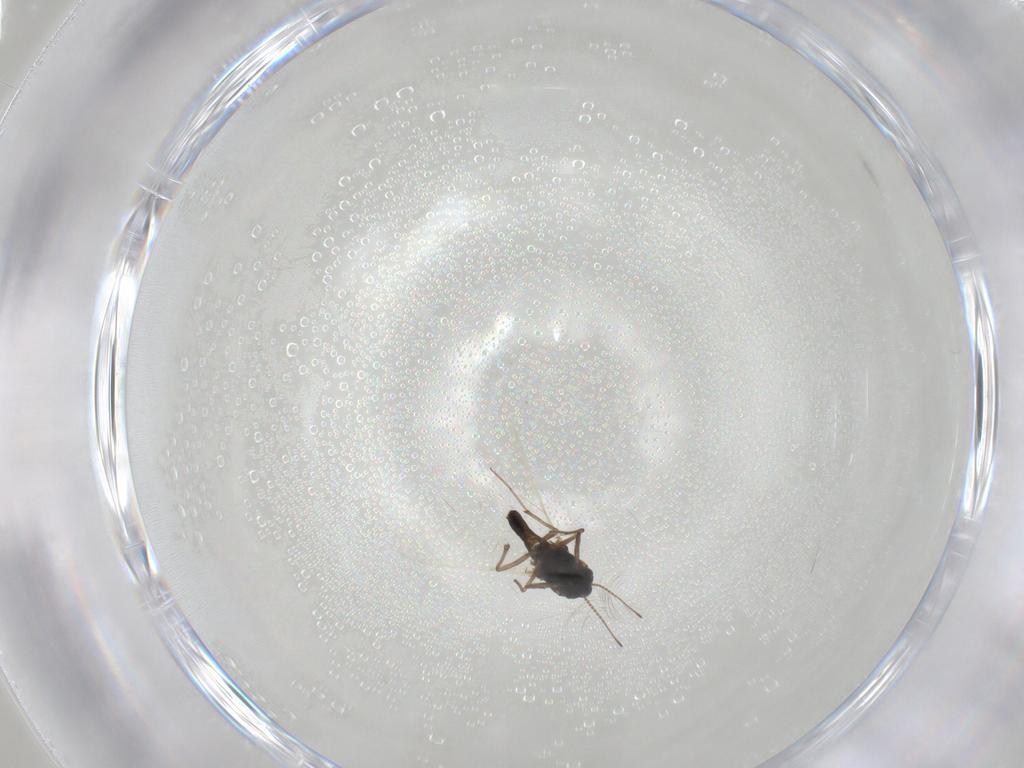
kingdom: Animalia
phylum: Arthropoda
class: Insecta
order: Diptera
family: Chironomidae
